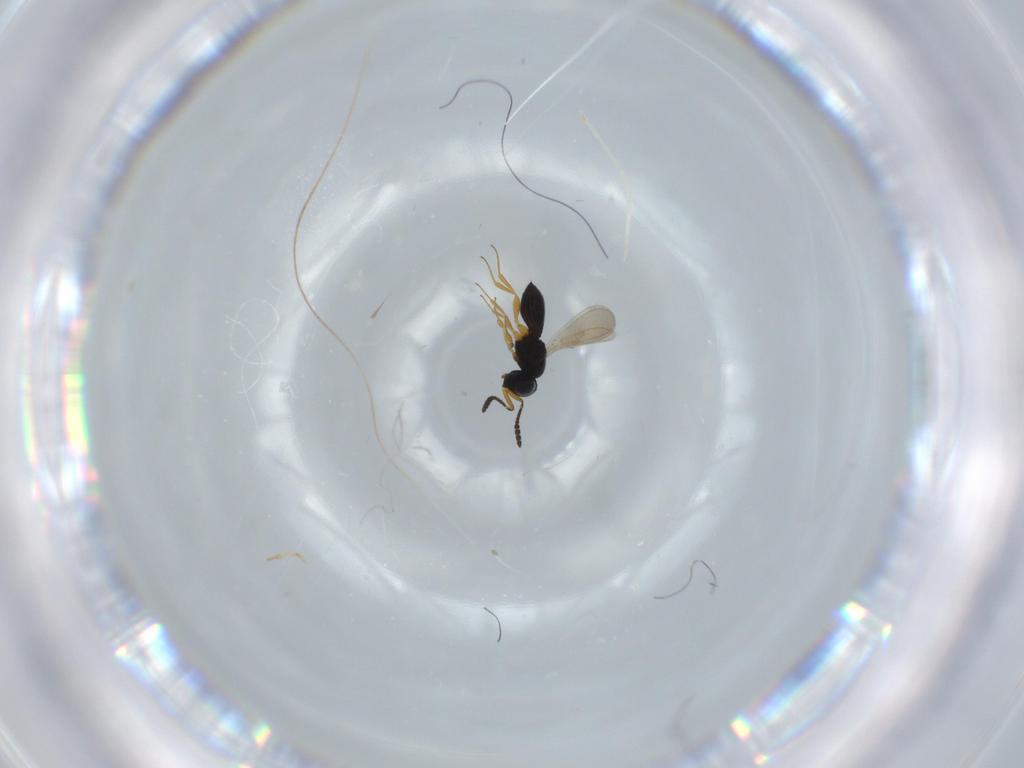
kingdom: Animalia
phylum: Arthropoda
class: Insecta
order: Hymenoptera
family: Scelionidae
